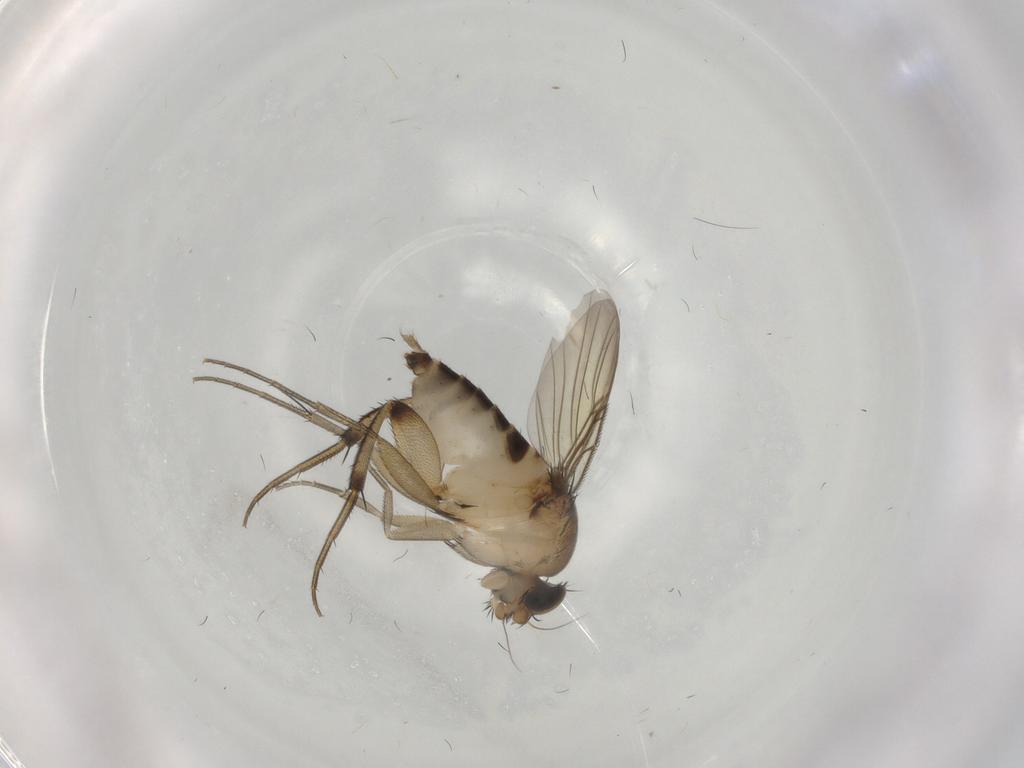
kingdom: Animalia
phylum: Arthropoda
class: Insecta
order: Diptera
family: Phoridae
